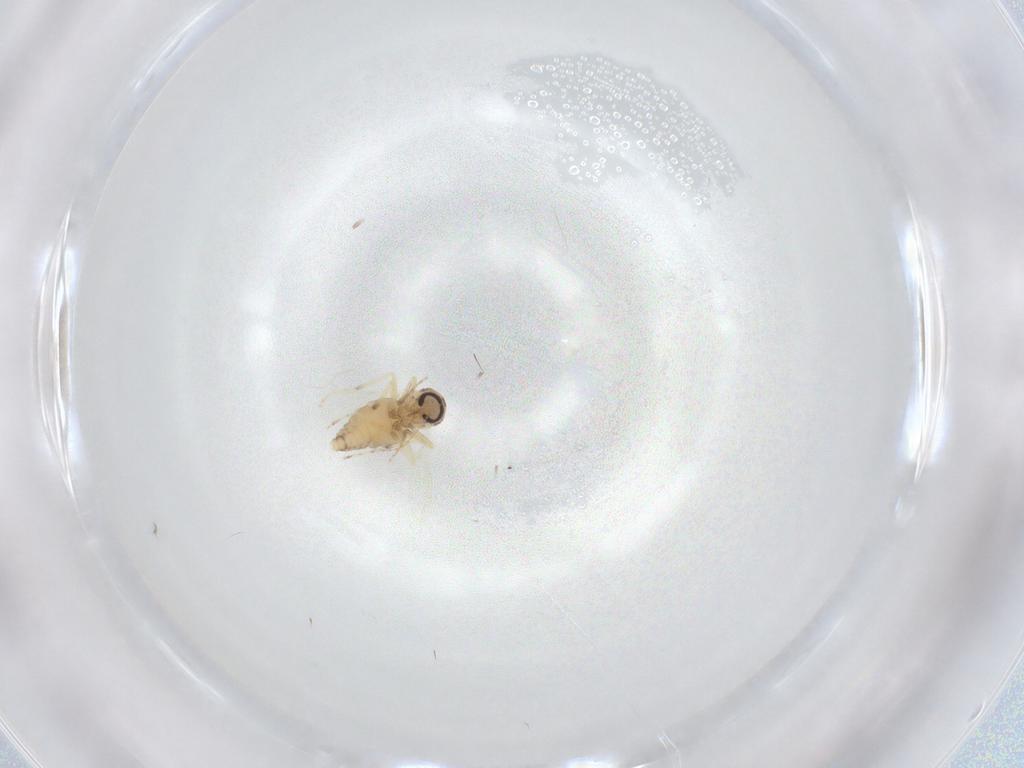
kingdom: Animalia
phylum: Arthropoda
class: Insecta
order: Diptera
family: Ceratopogonidae
